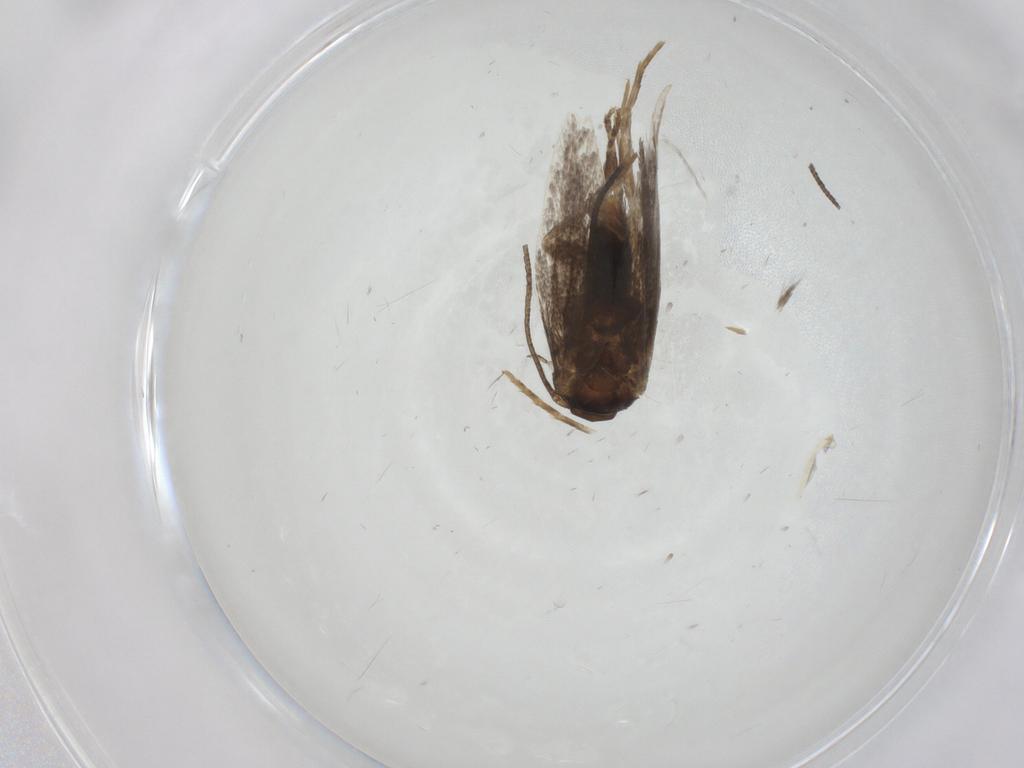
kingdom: Animalia
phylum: Arthropoda
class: Insecta
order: Lepidoptera
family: Elachistidae
